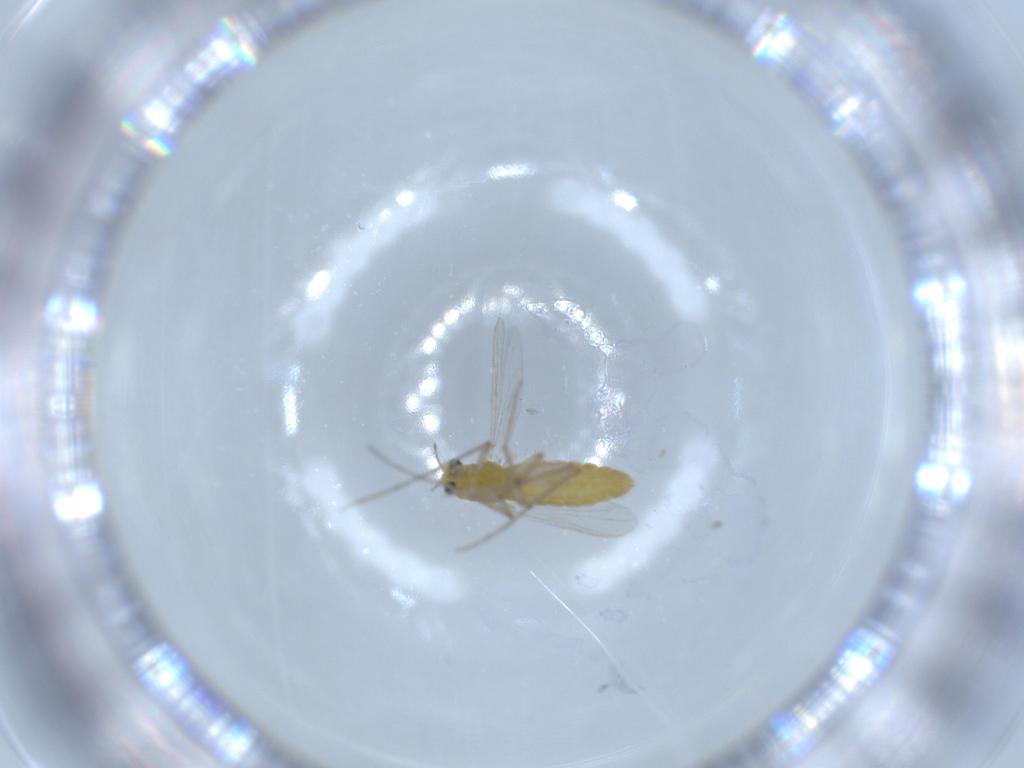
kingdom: Animalia
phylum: Arthropoda
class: Insecta
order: Diptera
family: Chironomidae
